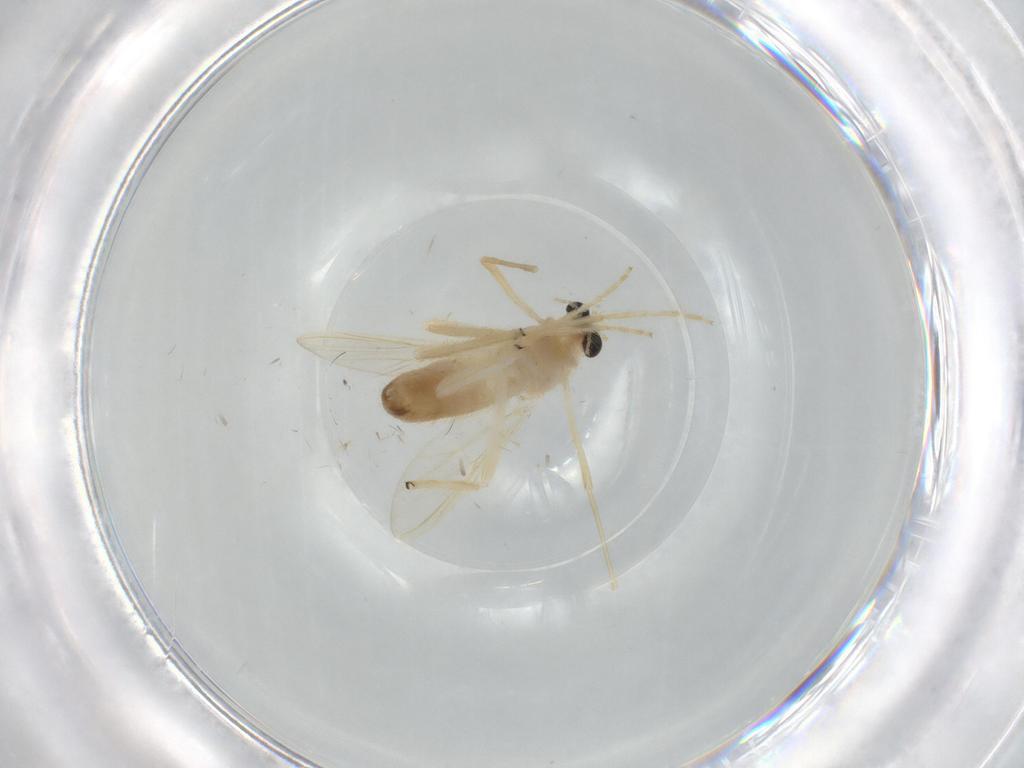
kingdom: Animalia
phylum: Arthropoda
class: Insecta
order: Diptera
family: Chironomidae
